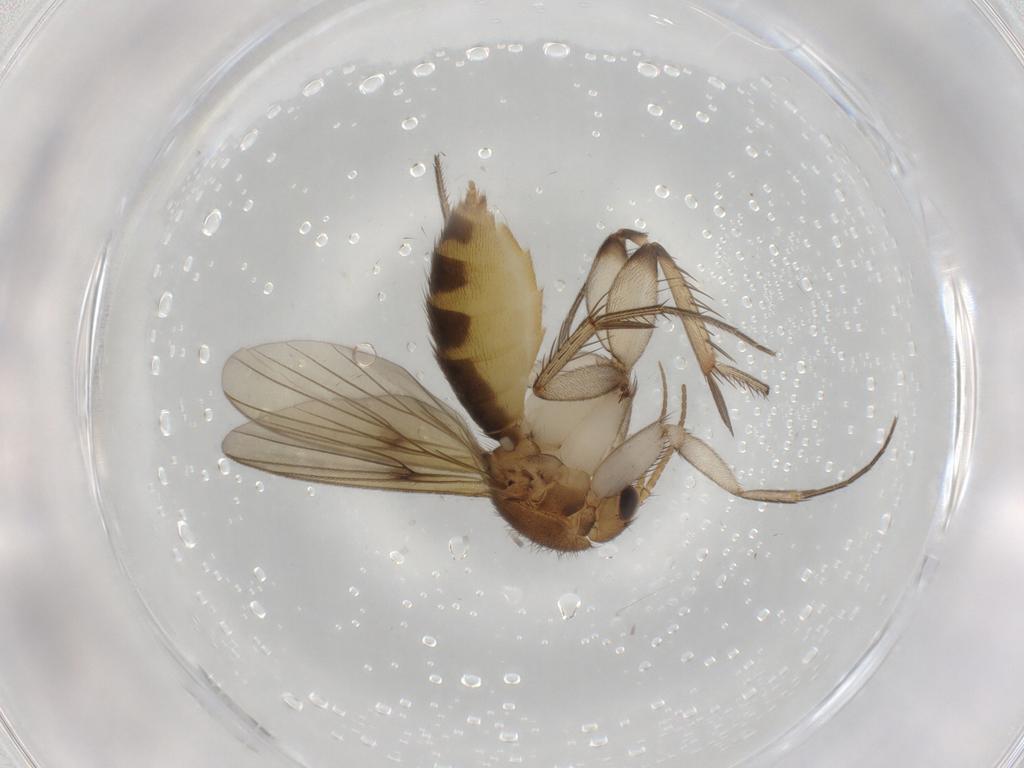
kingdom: Animalia
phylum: Arthropoda
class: Insecta
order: Diptera
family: Mycetophilidae
